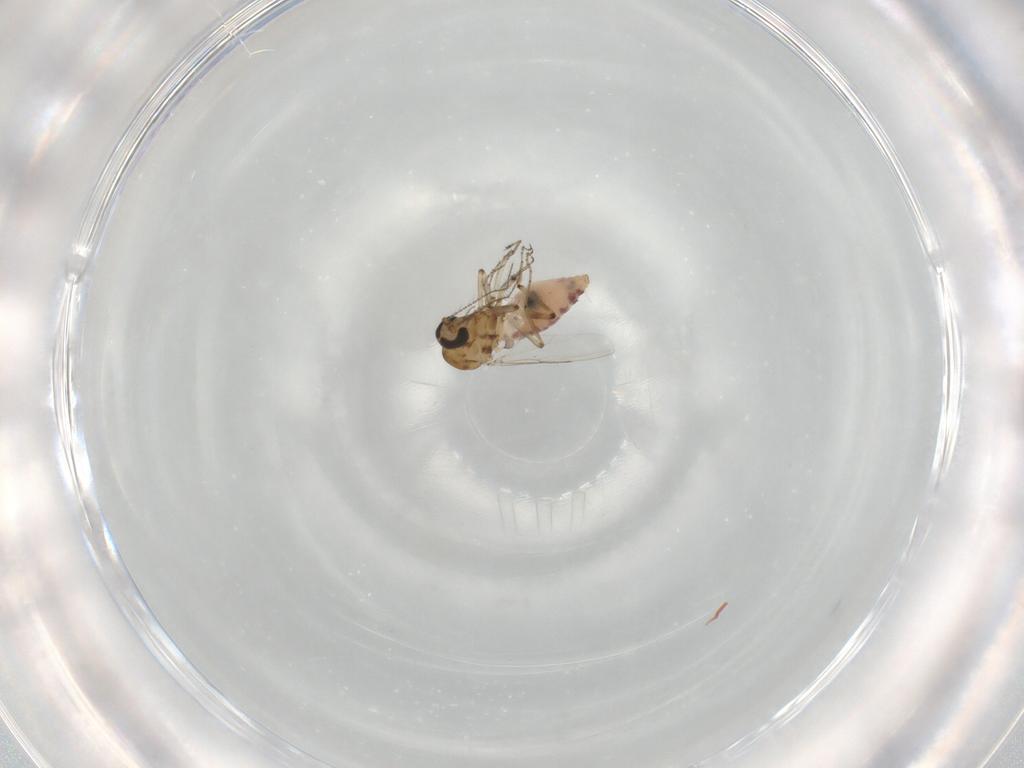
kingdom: Animalia
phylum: Arthropoda
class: Insecta
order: Diptera
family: Ceratopogonidae
